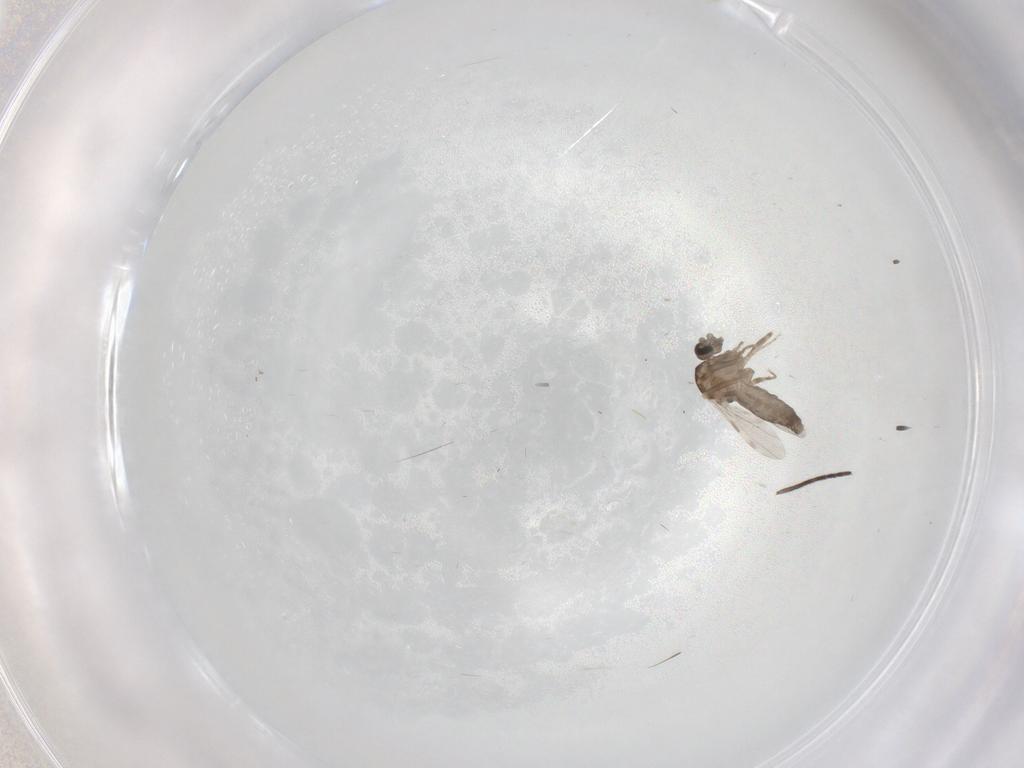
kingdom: Animalia
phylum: Arthropoda
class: Insecta
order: Diptera
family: Ceratopogonidae
